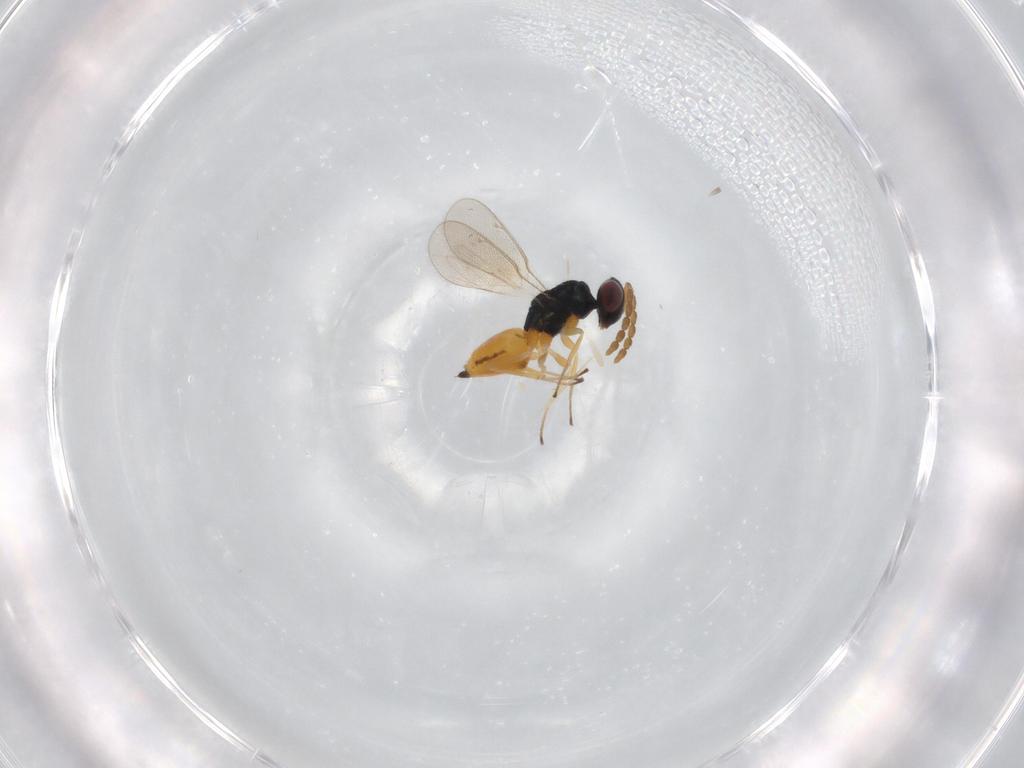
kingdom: Animalia
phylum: Arthropoda
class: Insecta
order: Hymenoptera
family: Eulophidae
